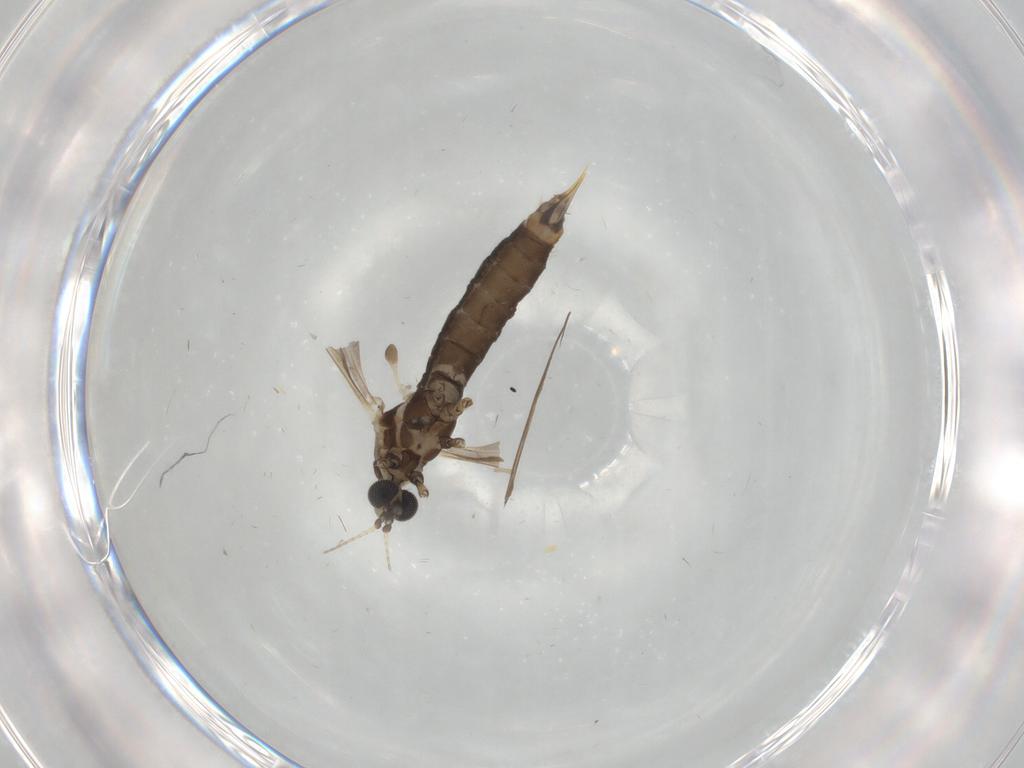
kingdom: Animalia
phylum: Arthropoda
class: Insecta
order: Diptera
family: Limoniidae
